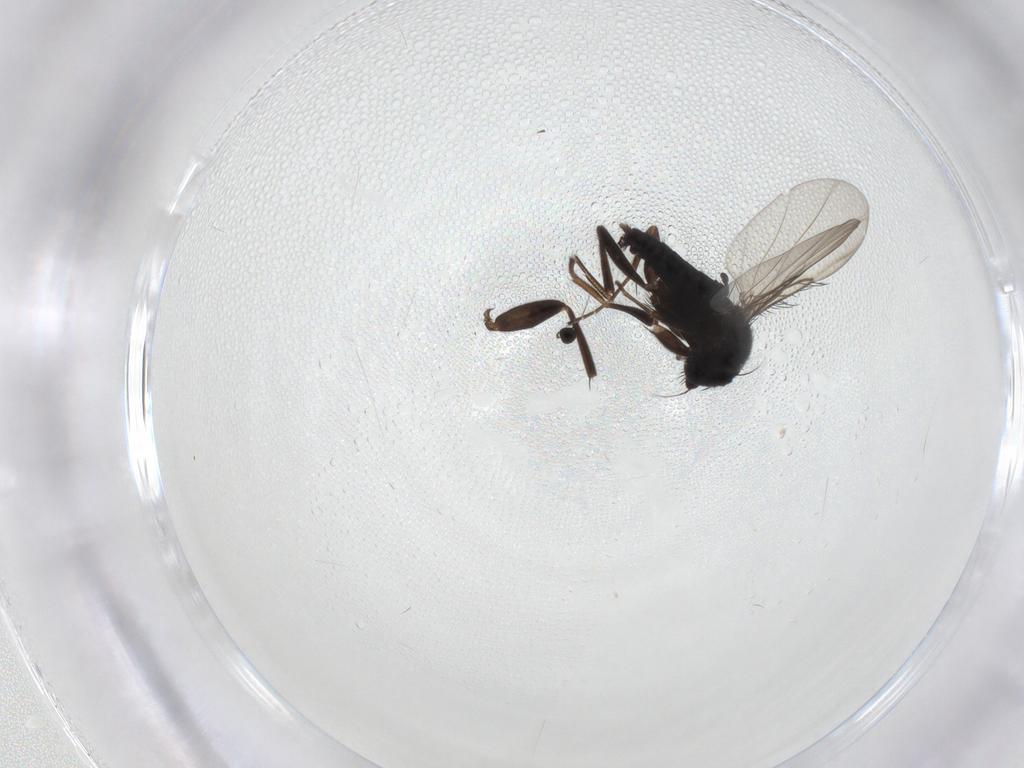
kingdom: Animalia
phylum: Arthropoda
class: Insecta
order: Diptera
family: Phoridae
